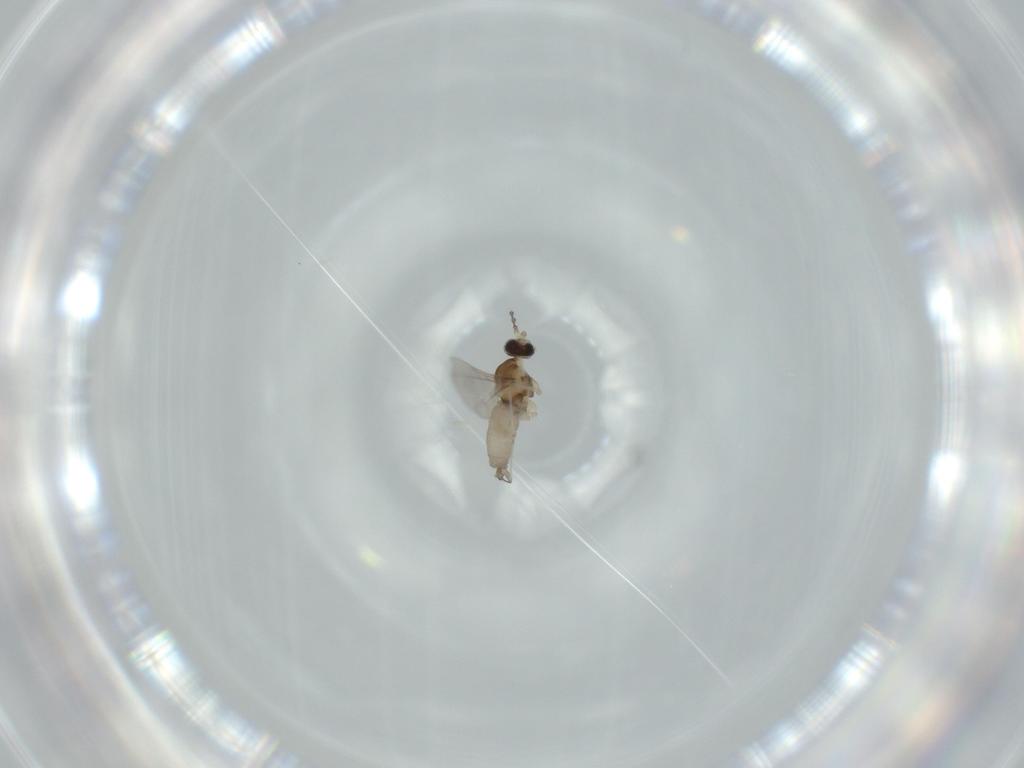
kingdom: Animalia
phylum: Arthropoda
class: Insecta
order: Diptera
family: Cecidomyiidae
